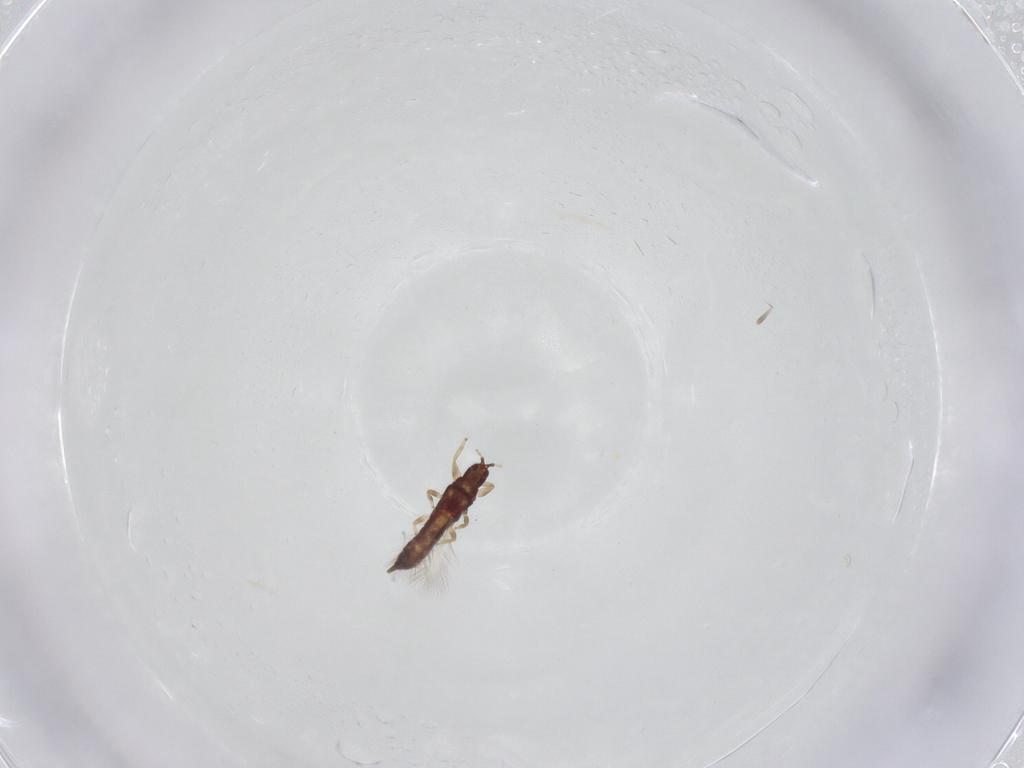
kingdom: Animalia
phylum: Arthropoda
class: Insecta
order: Thysanoptera
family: Phlaeothripidae
